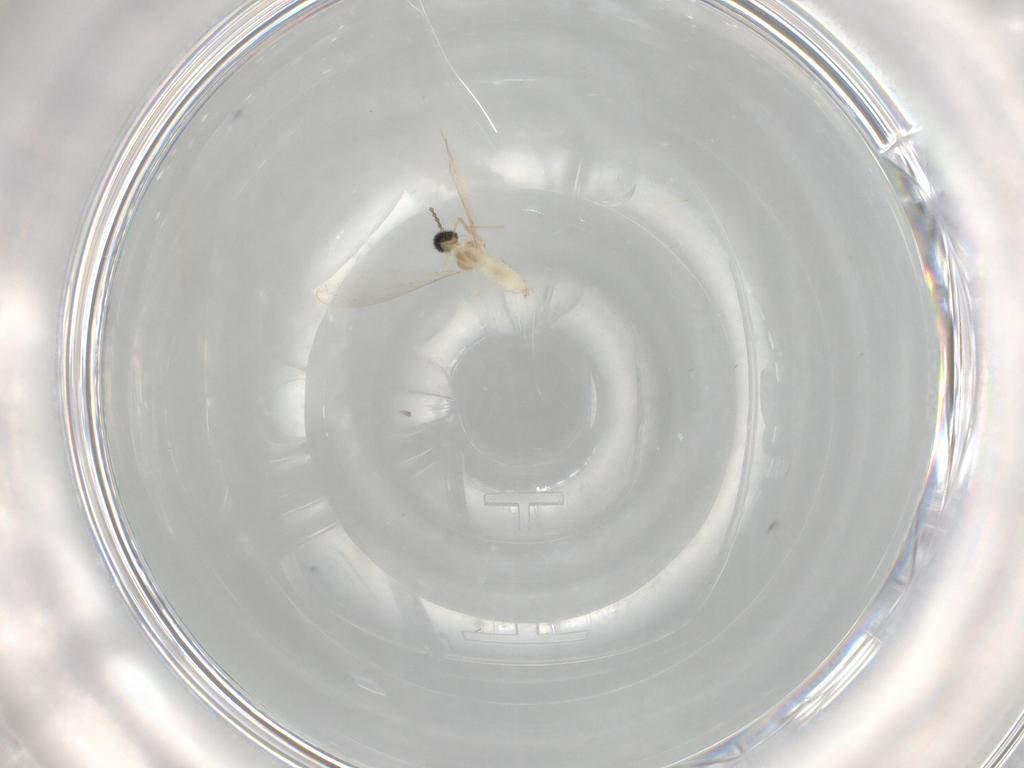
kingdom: Animalia
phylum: Arthropoda
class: Insecta
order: Diptera
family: Cecidomyiidae
